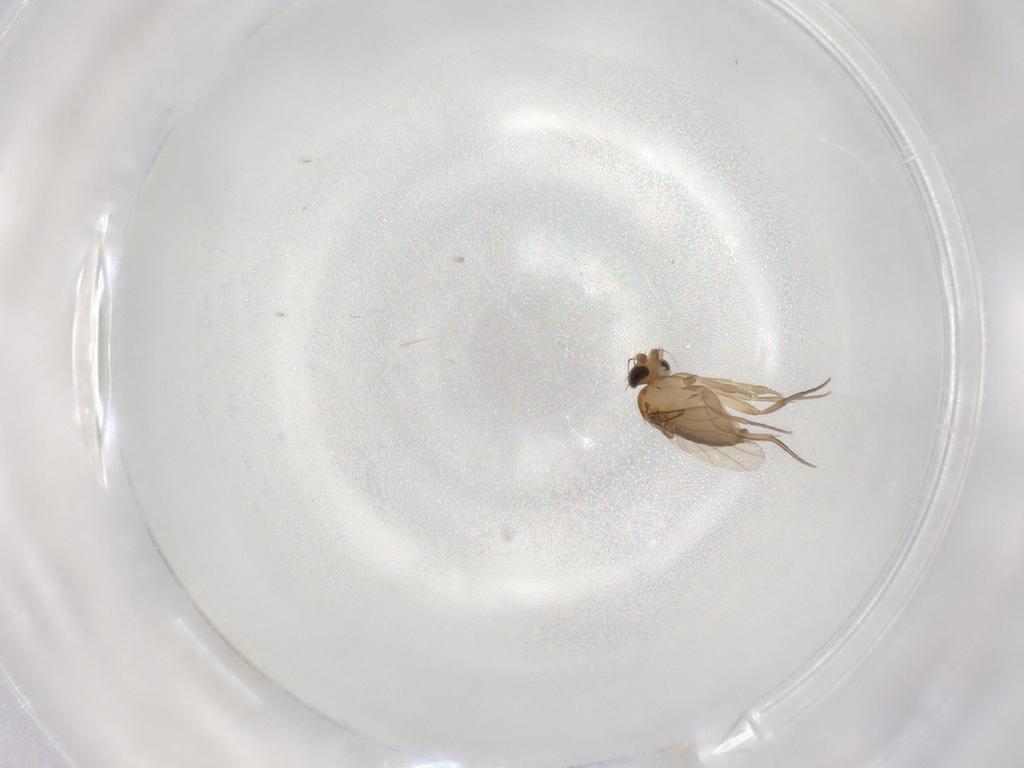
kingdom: Animalia
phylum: Arthropoda
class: Insecta
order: Diptera
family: Phoridae
